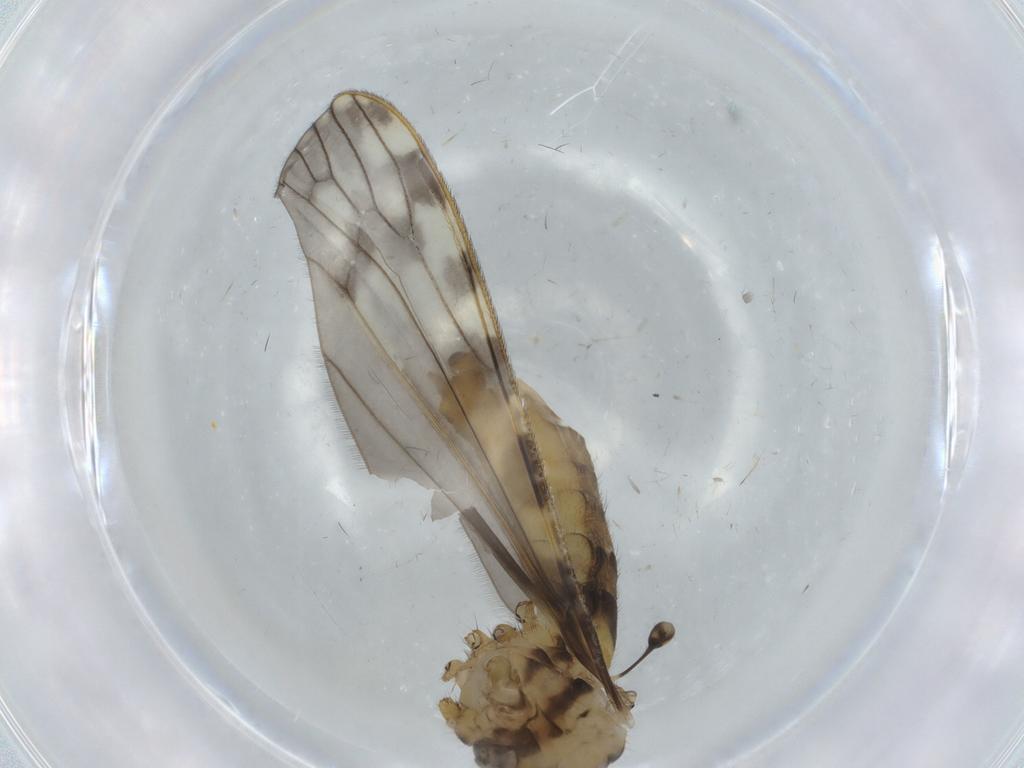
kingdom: Animalia
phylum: Arthropoda
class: Insecta
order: Diptera
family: Limoniidae
